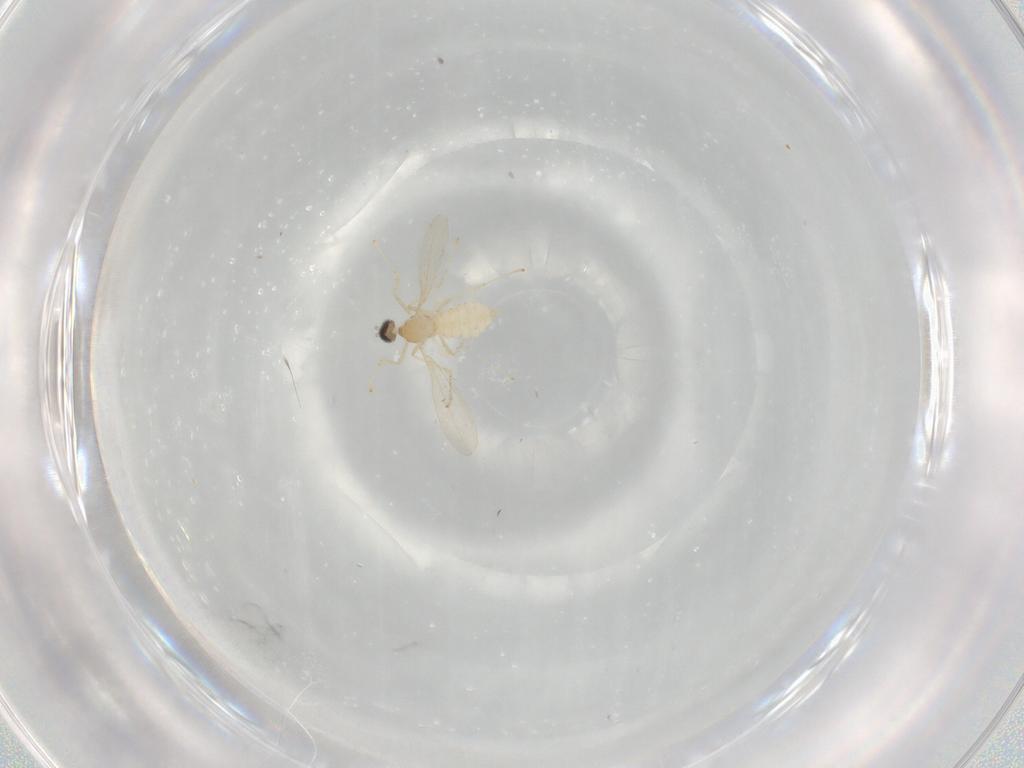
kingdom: Animalia
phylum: Arthropoda
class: Insecta
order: Diptera
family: Cecidomyiidae
